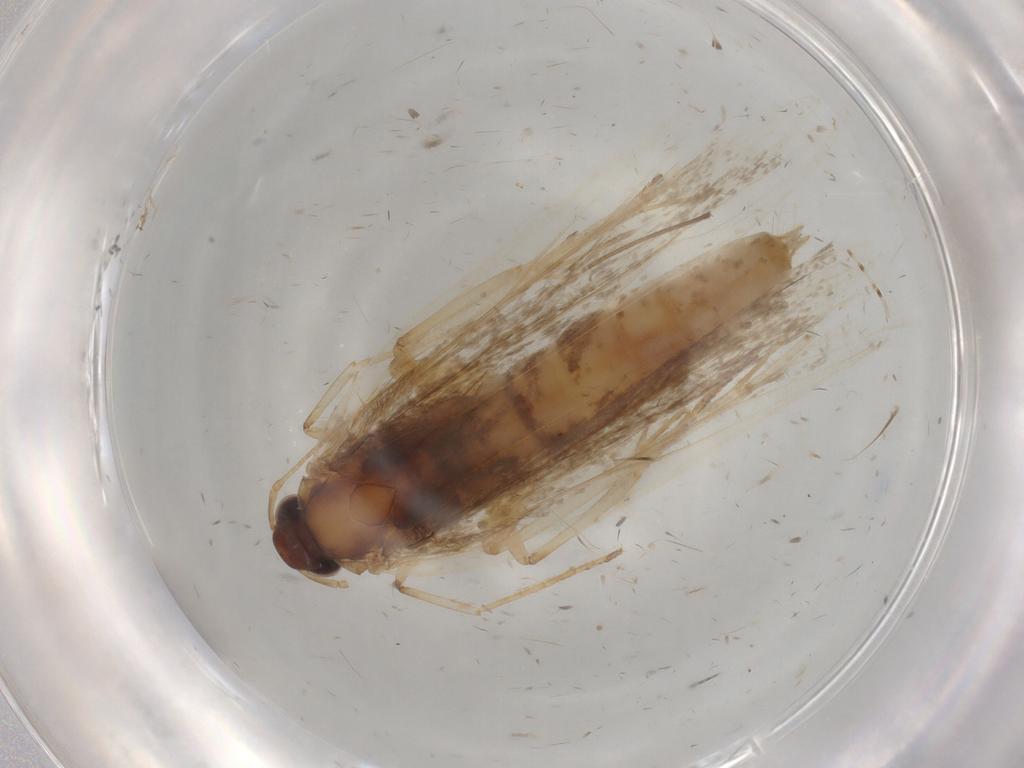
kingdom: Animalia
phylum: Arthropoda
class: Insecta
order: Lepidoptera
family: Gelechiidae
